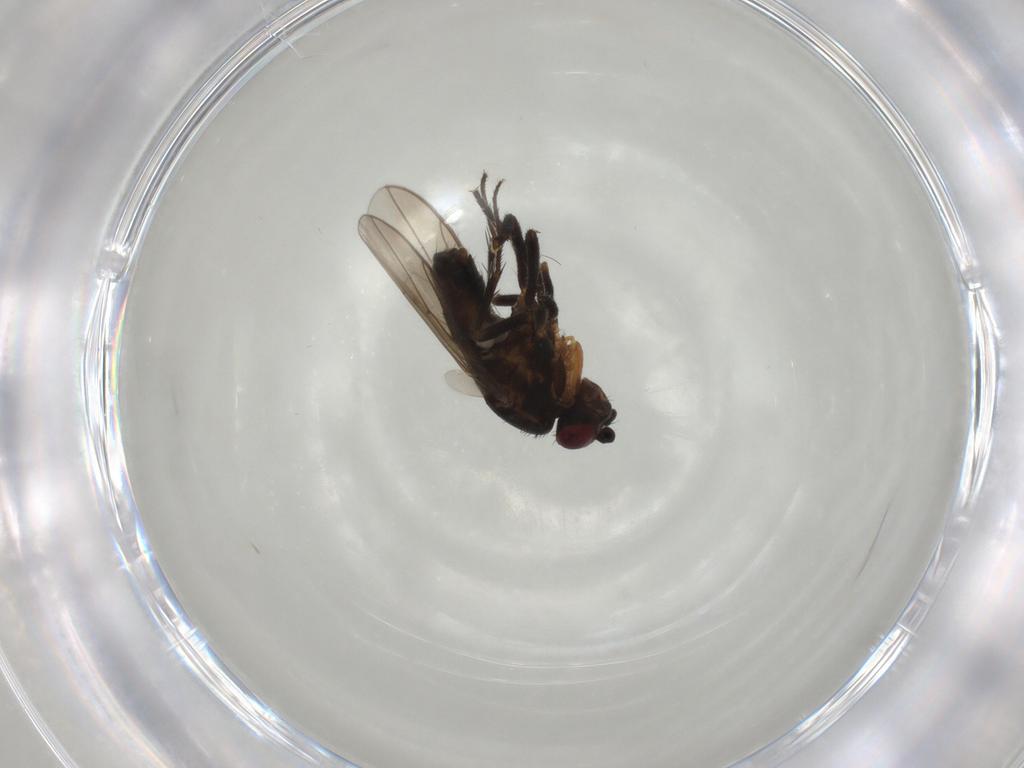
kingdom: Animalia
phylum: Arthropoda
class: Insecta
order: Diptera
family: Sphaeroceridae
